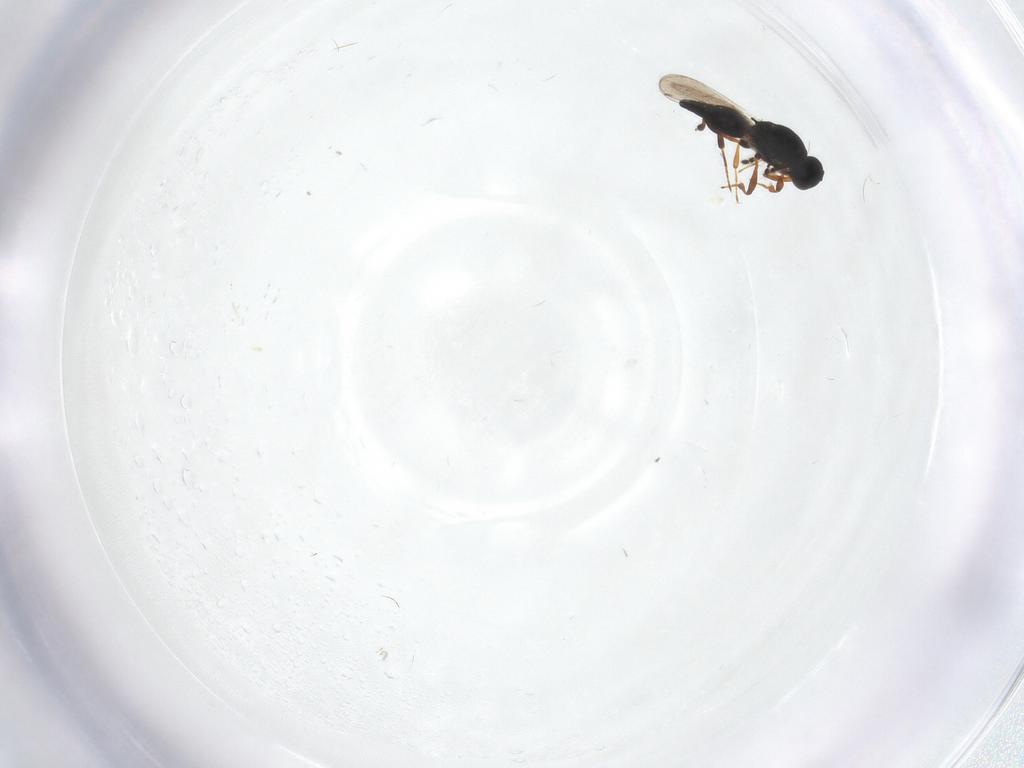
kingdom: Animalia
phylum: Arthropoda
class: Insecta
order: Hymenoptera
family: Platygastridae
